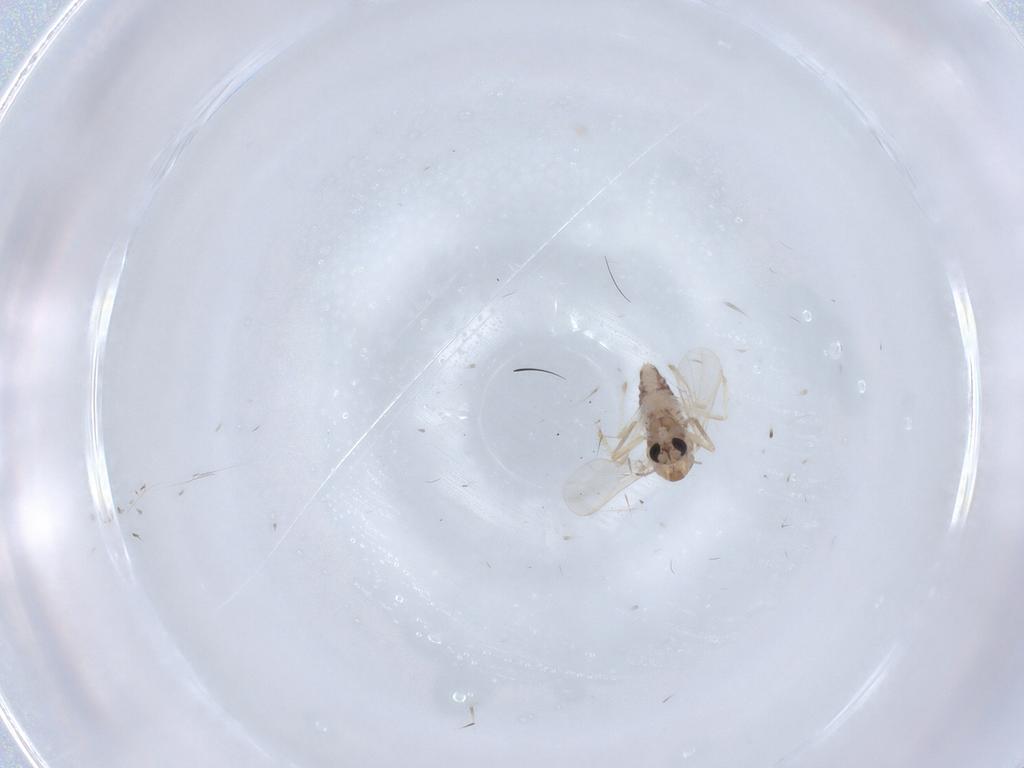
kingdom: Animalia
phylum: Arthropoda
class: Insecta
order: Diptera
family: Chironomidae
